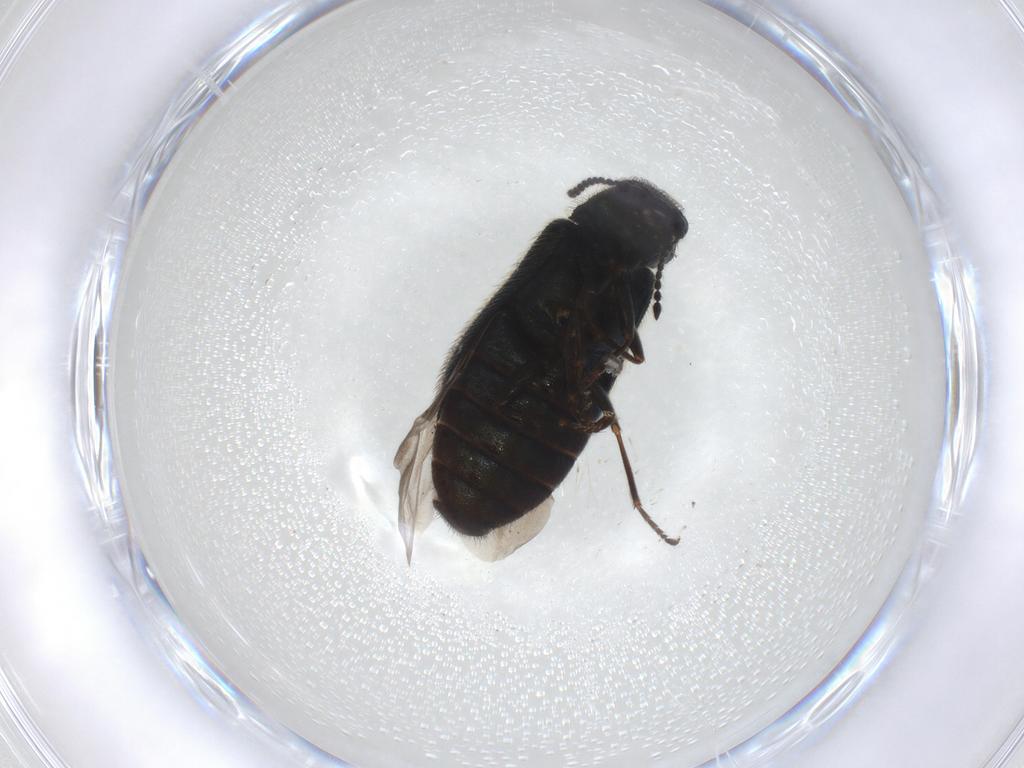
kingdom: Animalia
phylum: Arthropoda
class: Insecta
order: Coleoptera
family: Melyridae
